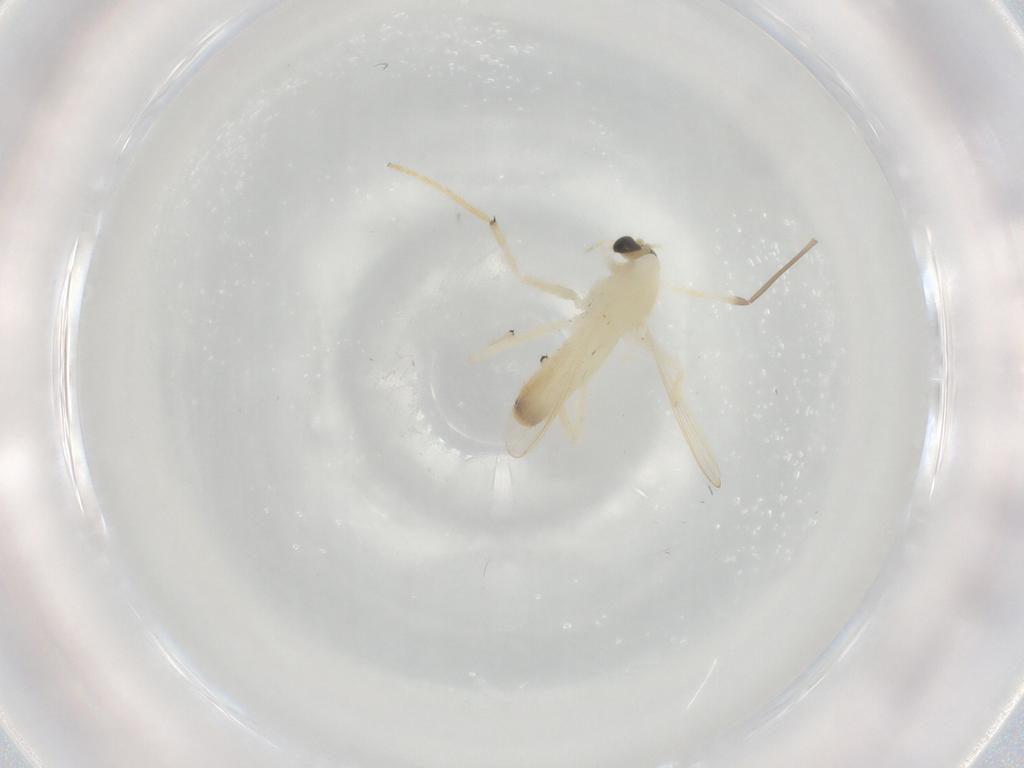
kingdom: Animalia
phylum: Arthropoda
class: Insecta
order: Diptera
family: Chironomidae
